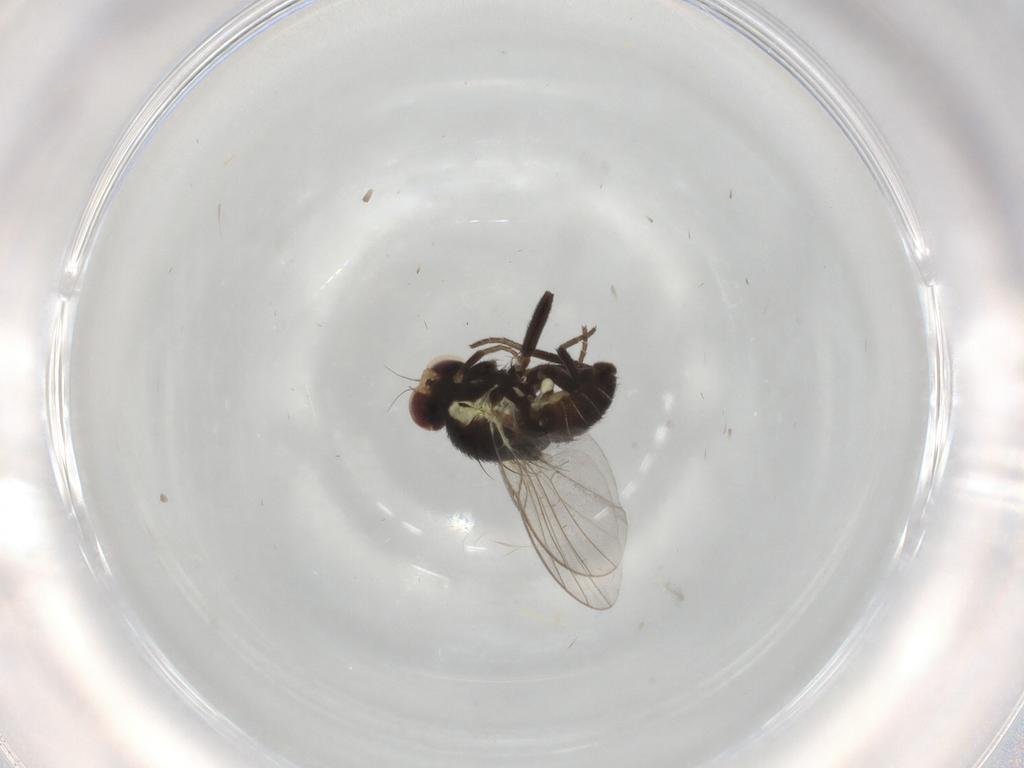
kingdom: Animalia
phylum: Arthropoda
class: Insecta
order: Diptera
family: Agromyzidae
